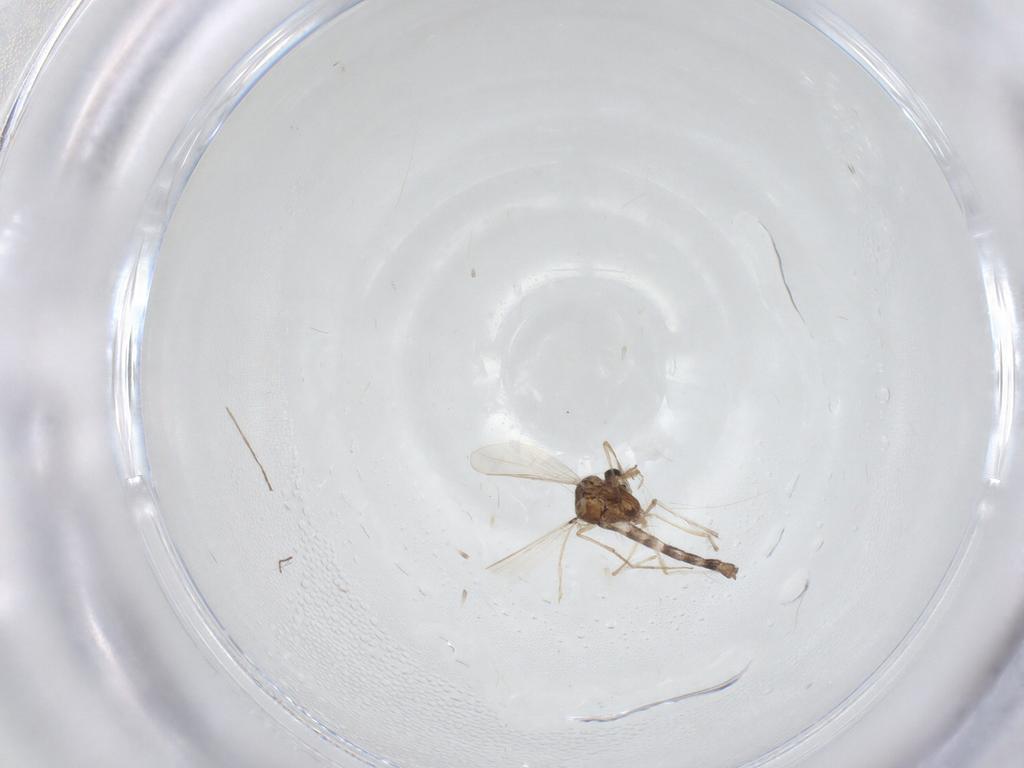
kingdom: Animalia
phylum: Arthropoda
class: Insecta
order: Diptera
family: Chironomidae
